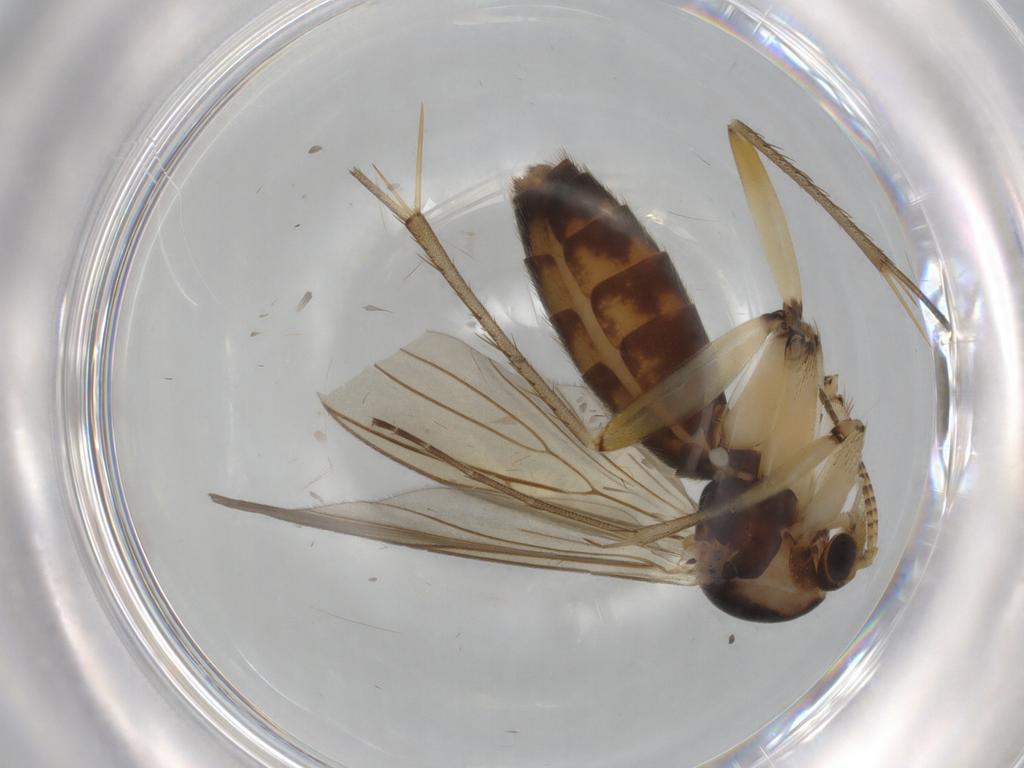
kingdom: Animalia
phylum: Arthropoda
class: Insecta
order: Diptera
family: Mycetophilidae
